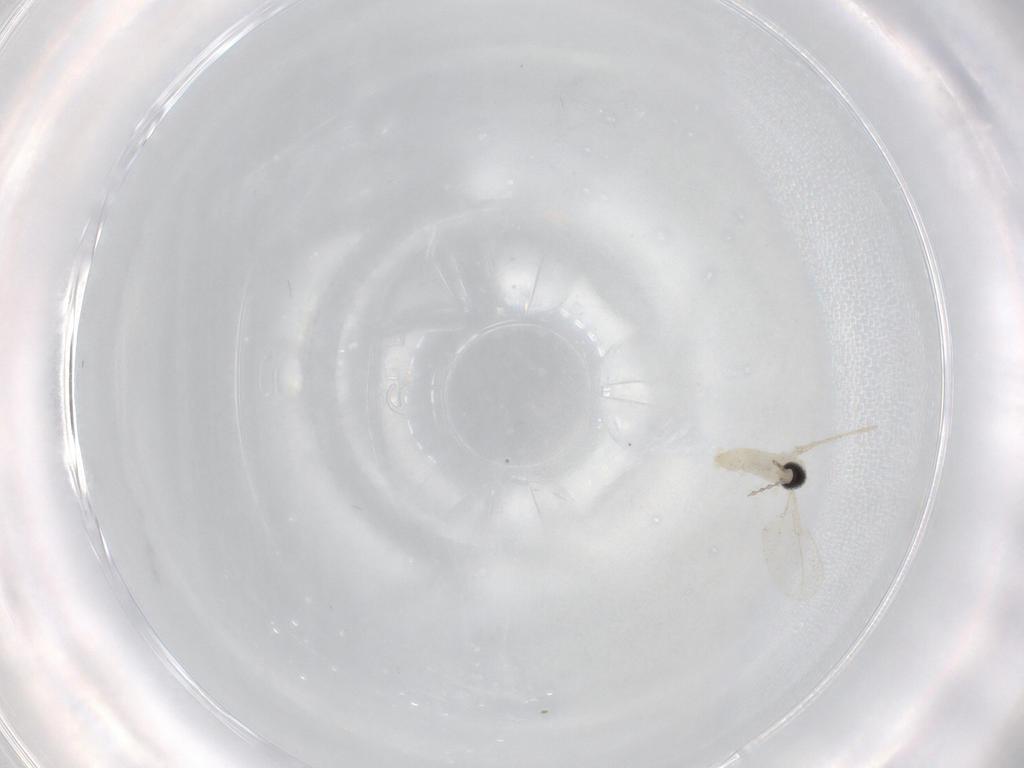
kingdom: Animalia
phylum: Arthropoda
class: Insecta
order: Diptera
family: Cecidomyiidae
